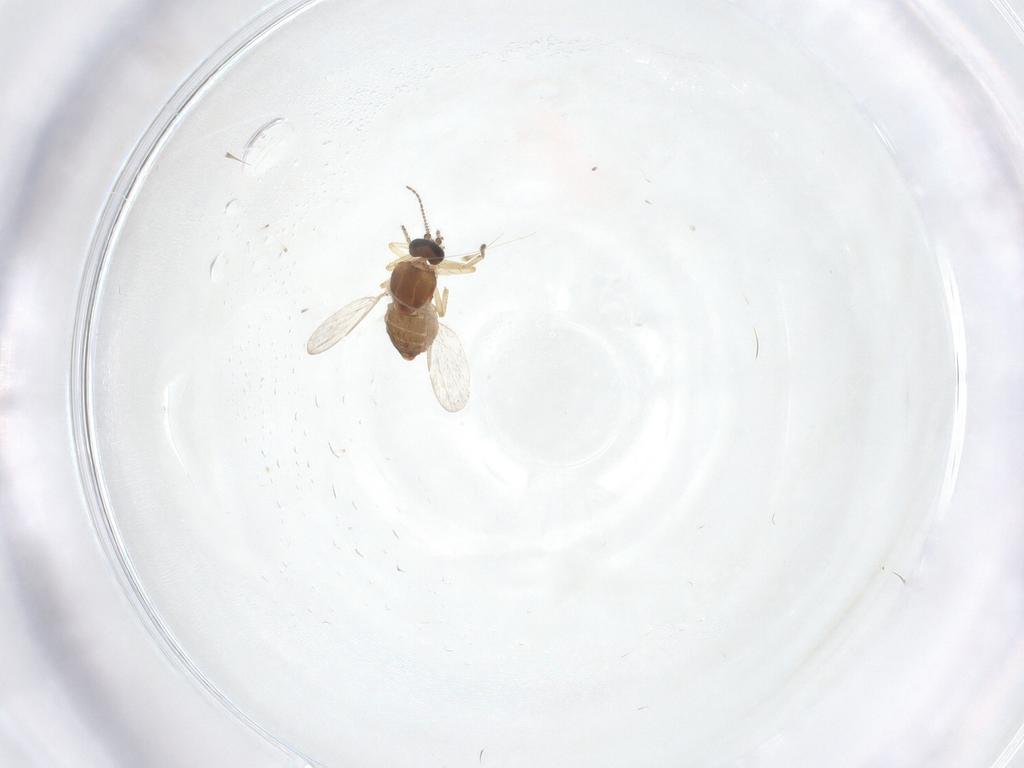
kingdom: Animalia
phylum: Arthropoda
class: Insecta
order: Diptera
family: Ceratopogonidae
